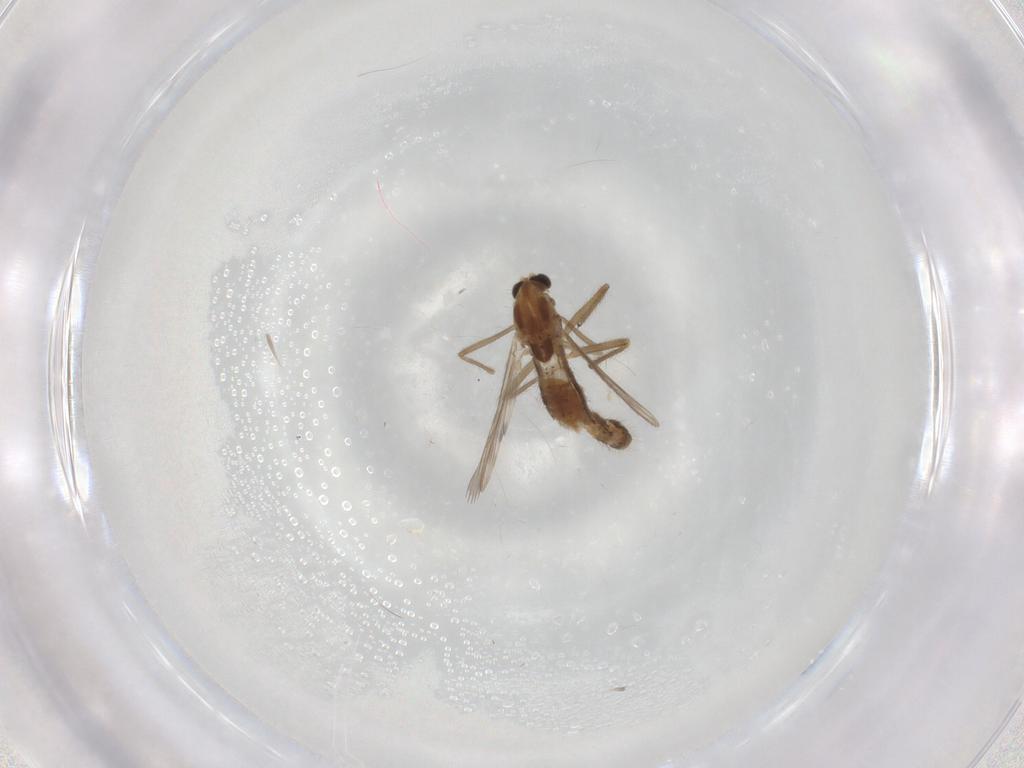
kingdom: Animalia
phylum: Arthropoda
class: Insecta
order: Diptera
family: Chironomidae
